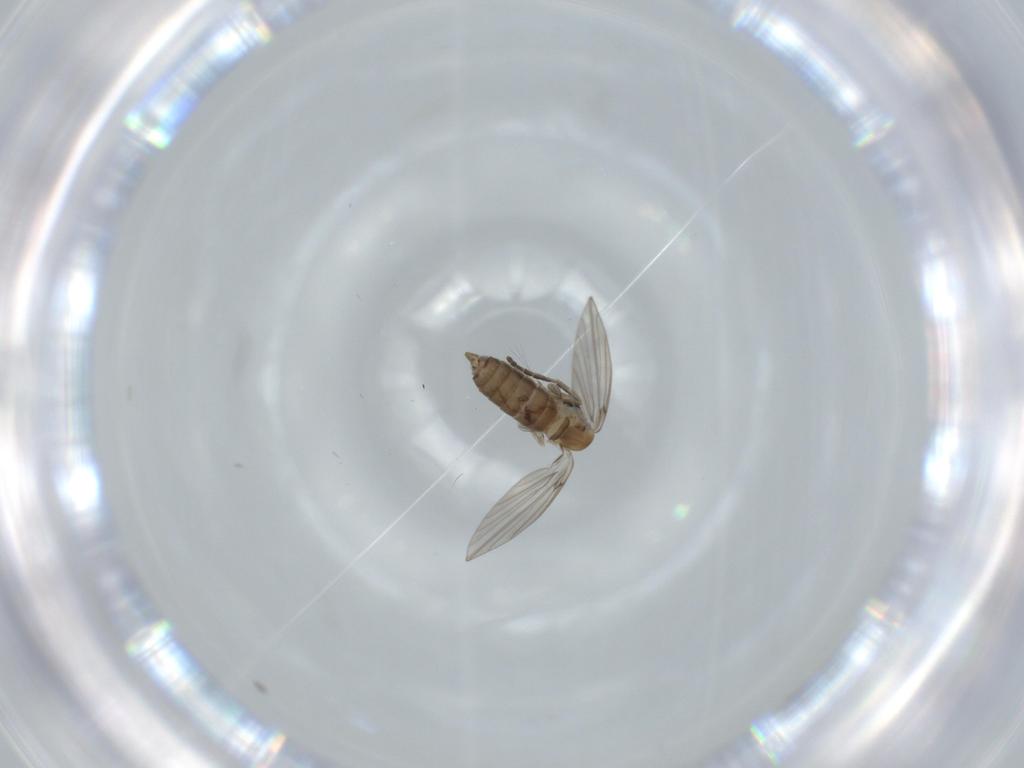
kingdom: Animalia
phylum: Arthropoda
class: Insecta
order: Diptera
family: Psychodidae
